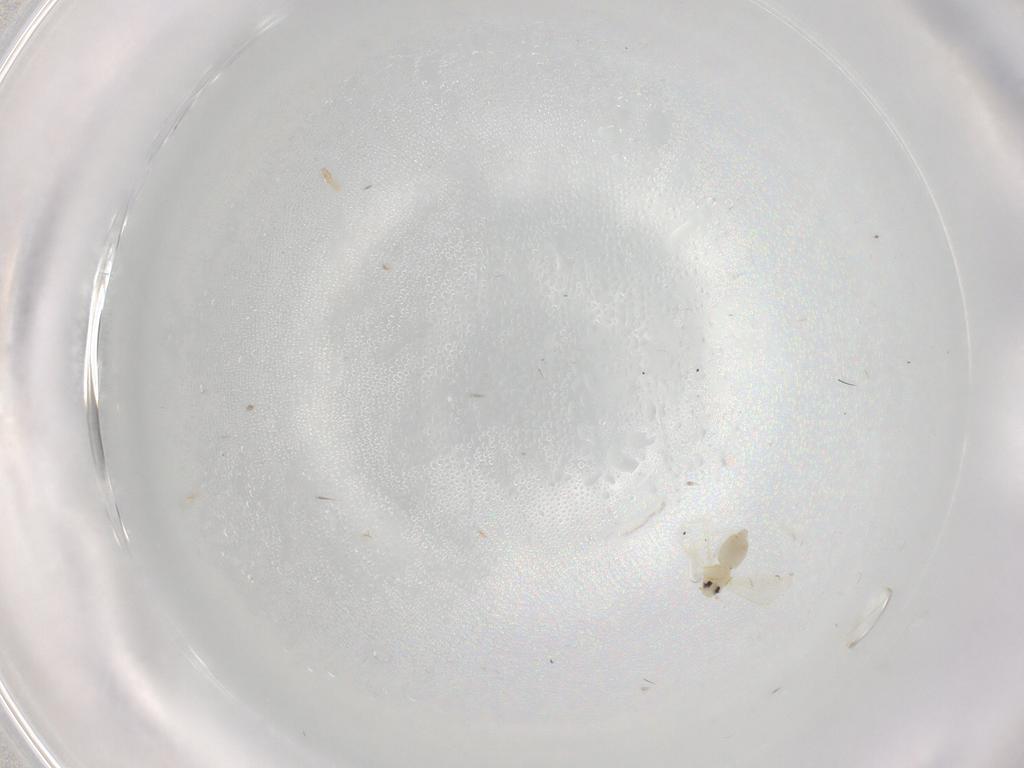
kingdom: Animalia
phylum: Arthropoda
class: Insecta
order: Hemiptera
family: Aleyrodidae
